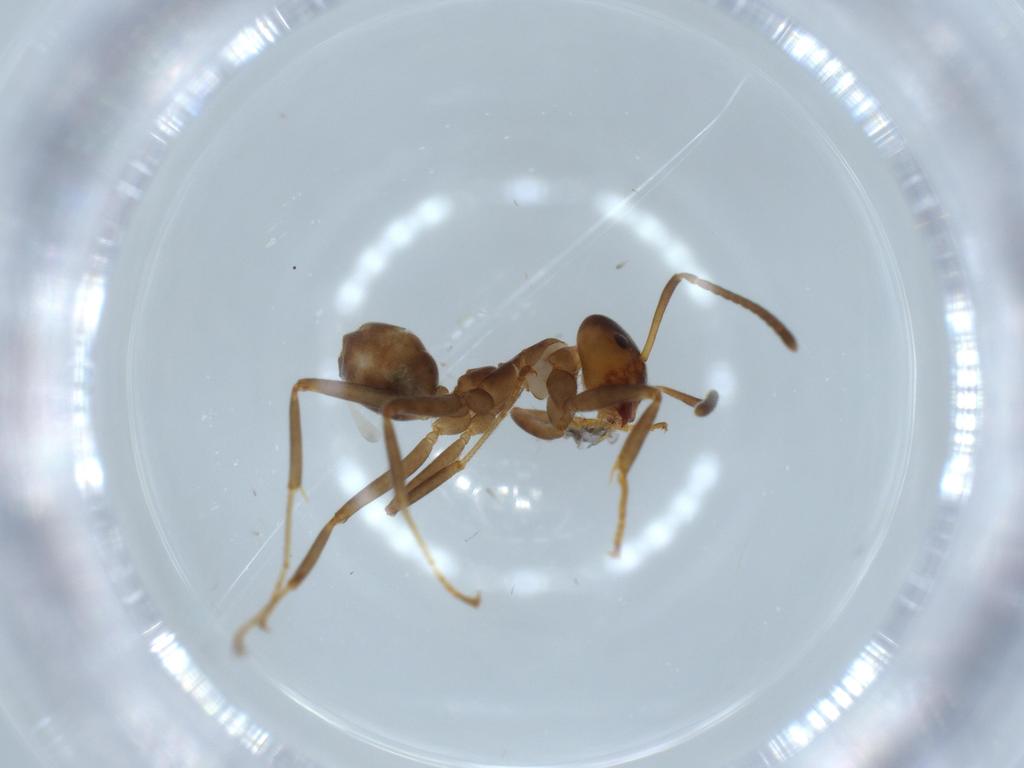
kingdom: Animalia
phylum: Arthropoda
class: Insecta
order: Hymenoptera
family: Formicidae
